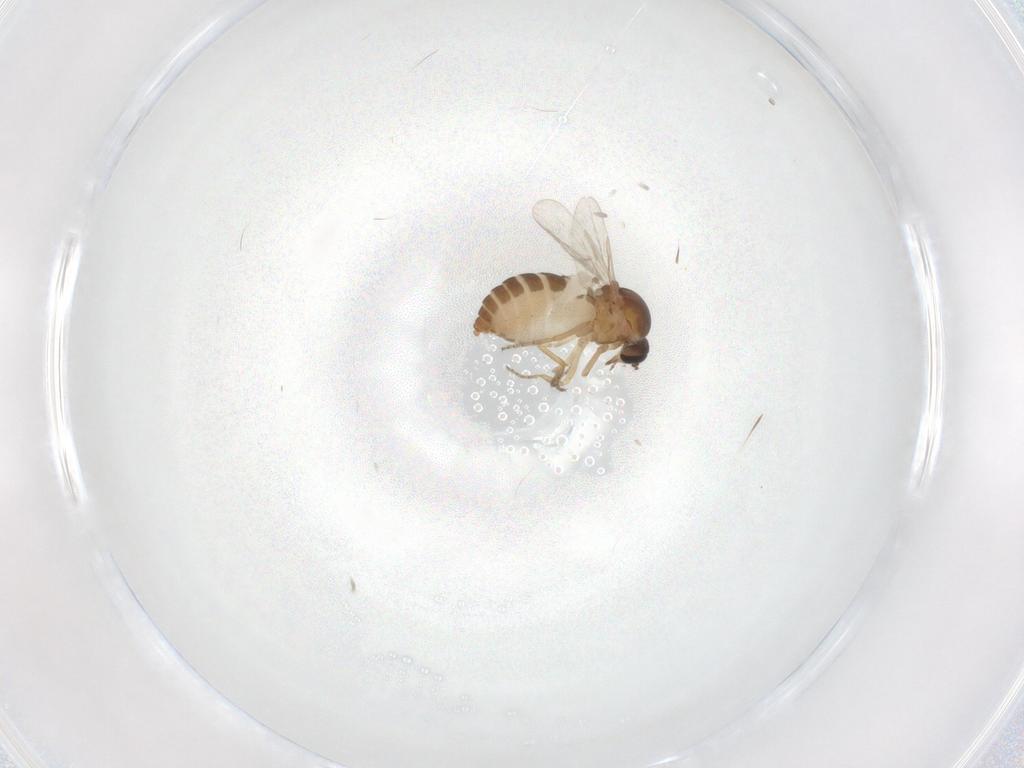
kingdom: Animalia
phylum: Arthropoda
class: Insecta
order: Diptera
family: Ceratopogonidae
